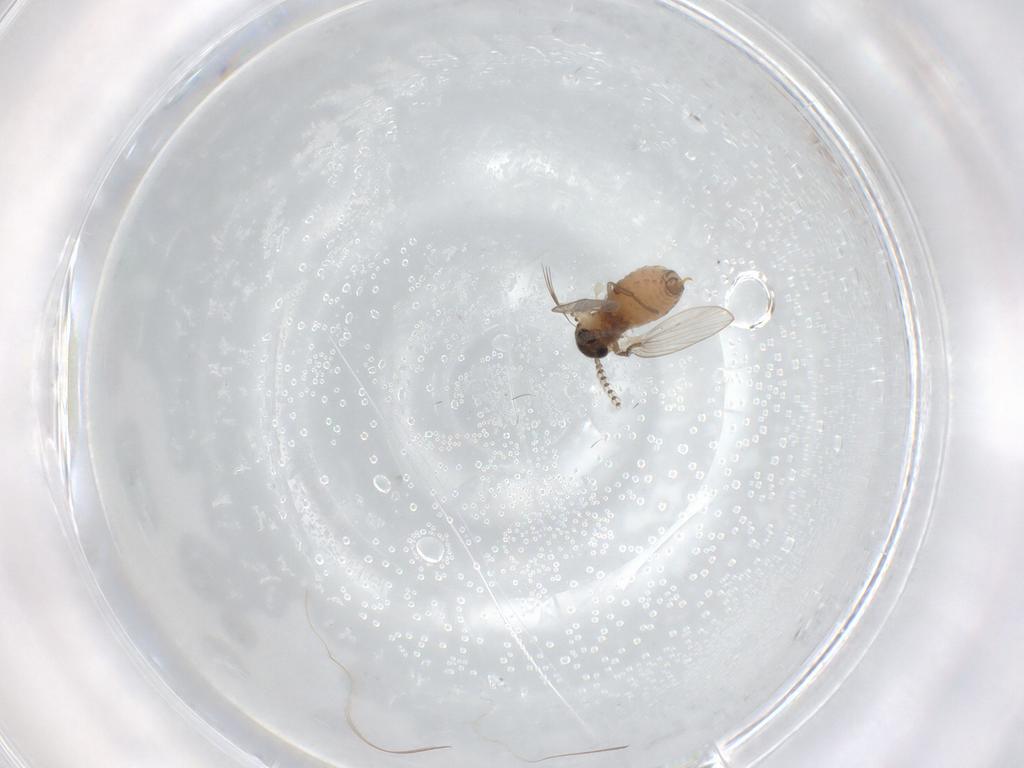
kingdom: Animalia
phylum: Arthropoda
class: Insecta
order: Diptera
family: Psychodidae
